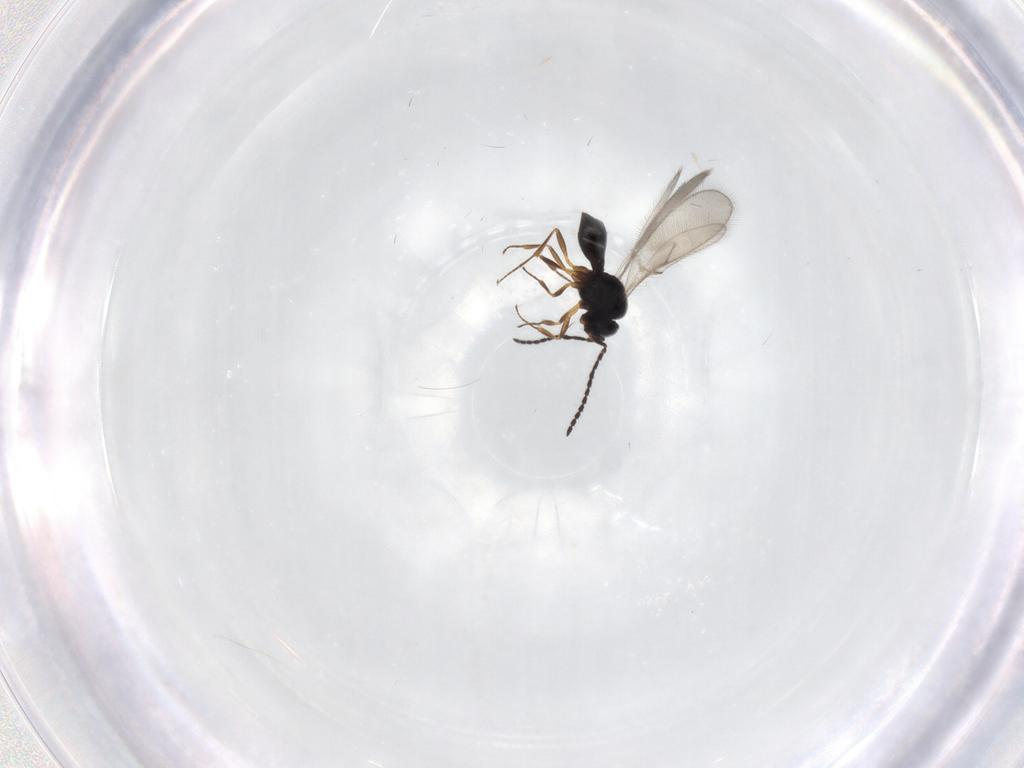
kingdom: Animalia
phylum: Arthropoda
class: Insecta
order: Hymenoptera
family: Scelionidae
